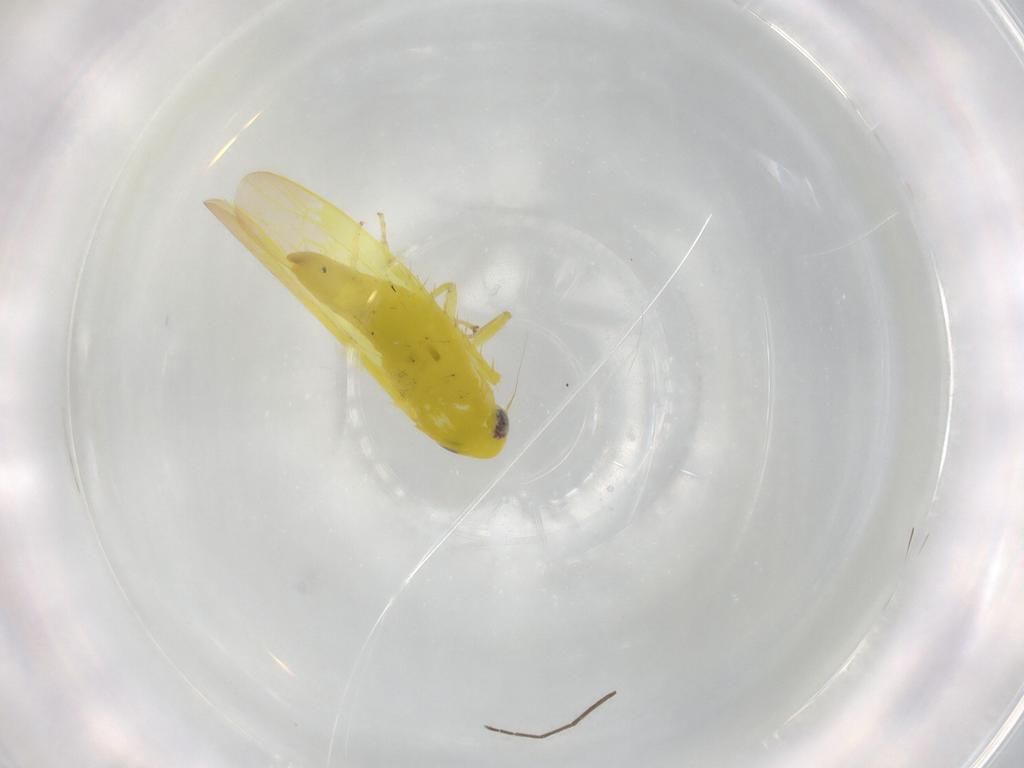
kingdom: Animalia
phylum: Arthropoda
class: Insecta
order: Hemiptera
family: Cicadellidae
